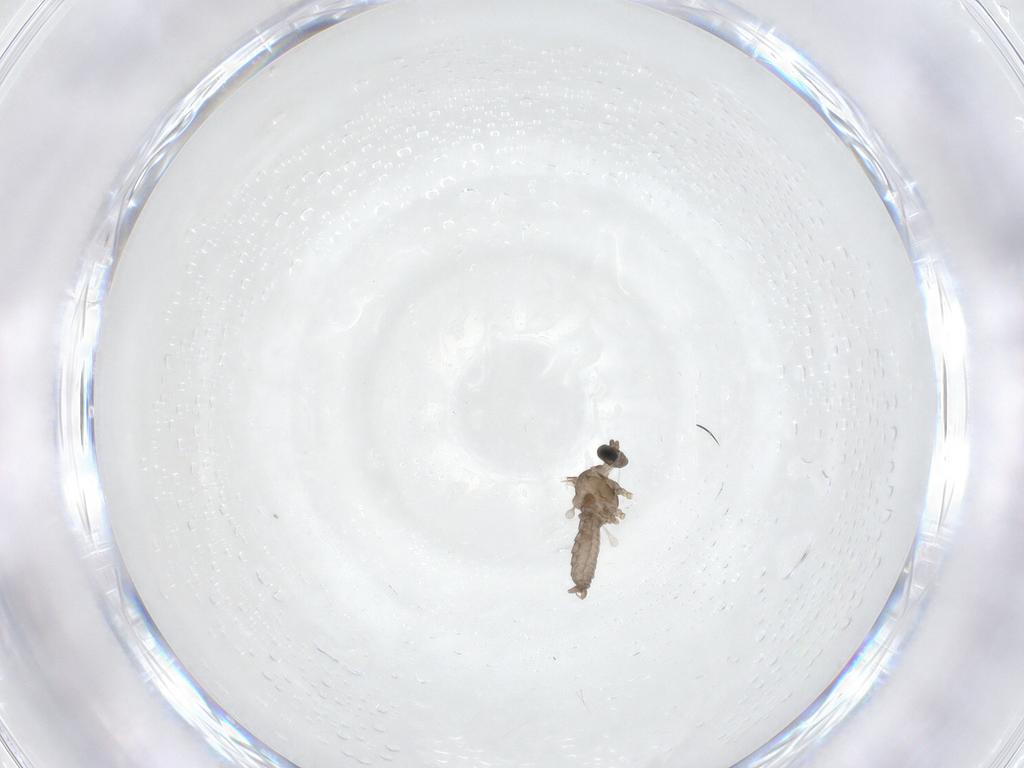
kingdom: Animalia
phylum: Arthropoda
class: Insecta
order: Diptera
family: Cecidomyiidae
